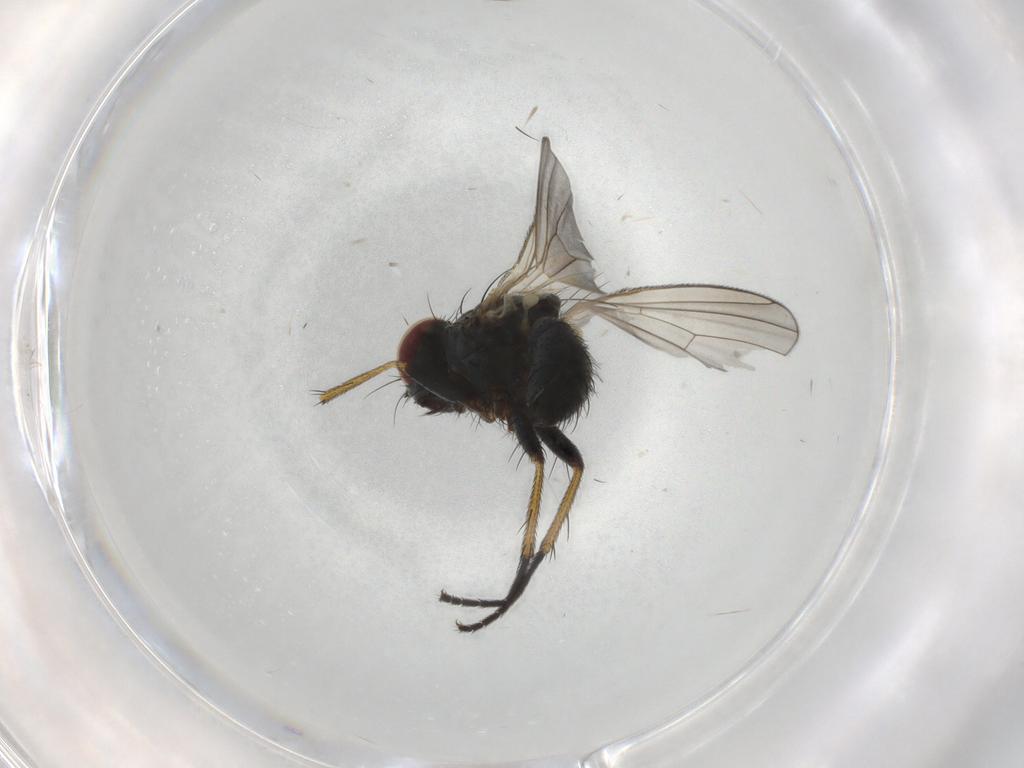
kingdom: Animalia
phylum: Arthropoda
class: Insecta
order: Diptera
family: Muscidae
